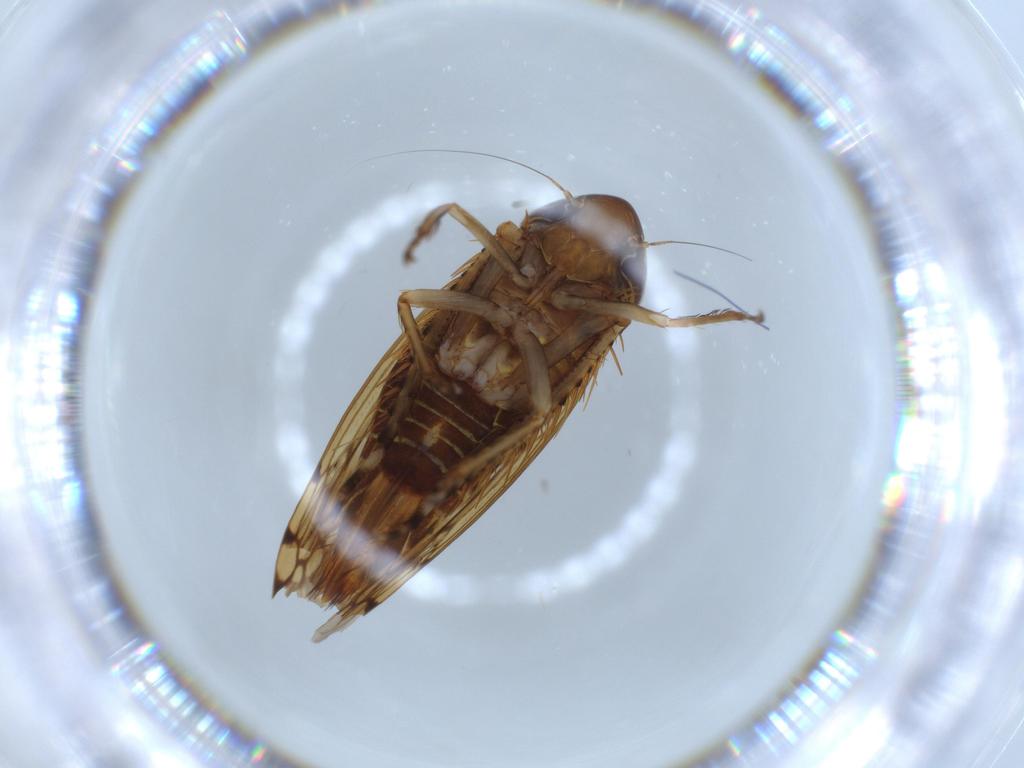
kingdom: Animalia
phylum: Arthropoda
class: Insecta
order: Hemiptera
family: Cicadellidae
